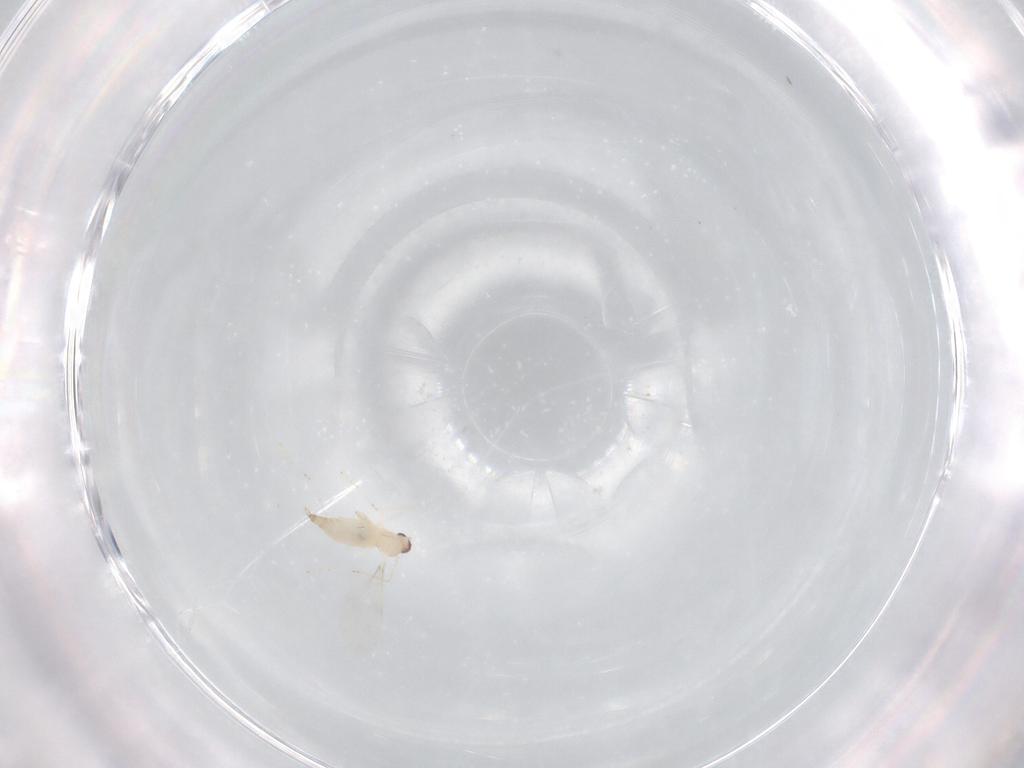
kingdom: Animalia
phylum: Arthropoda
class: Insecta
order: Diptera
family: Cecidomyiidae
